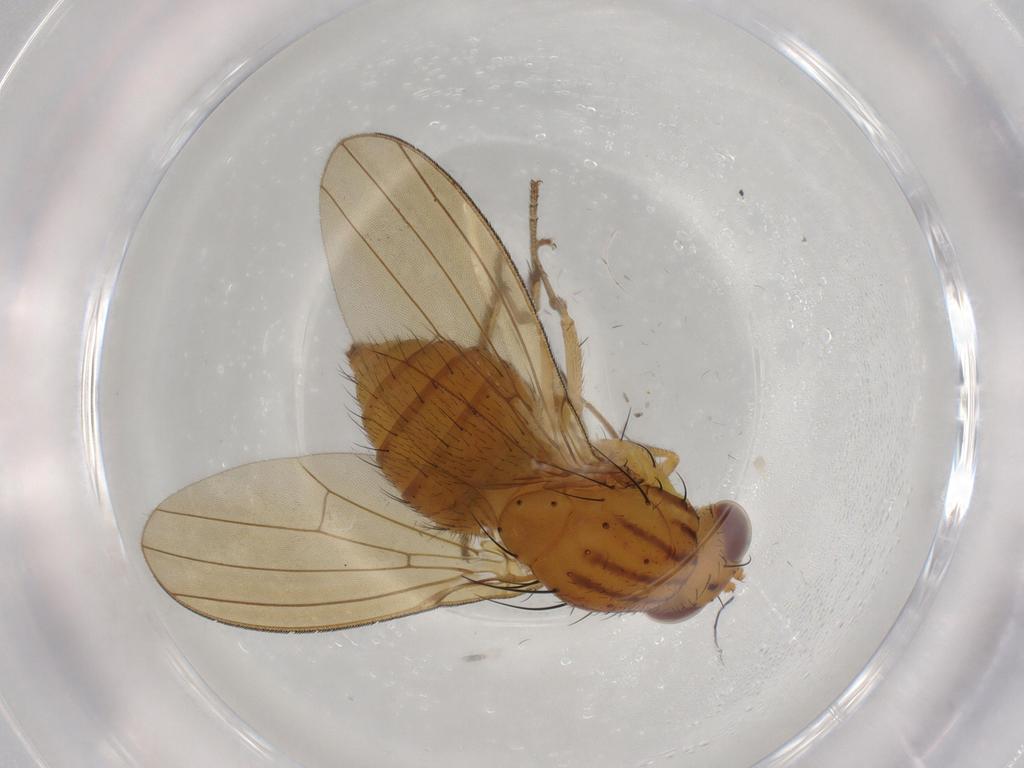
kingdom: Animalia
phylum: Arthropoda
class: Insecta
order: Diptera
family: Lauxaniidae
